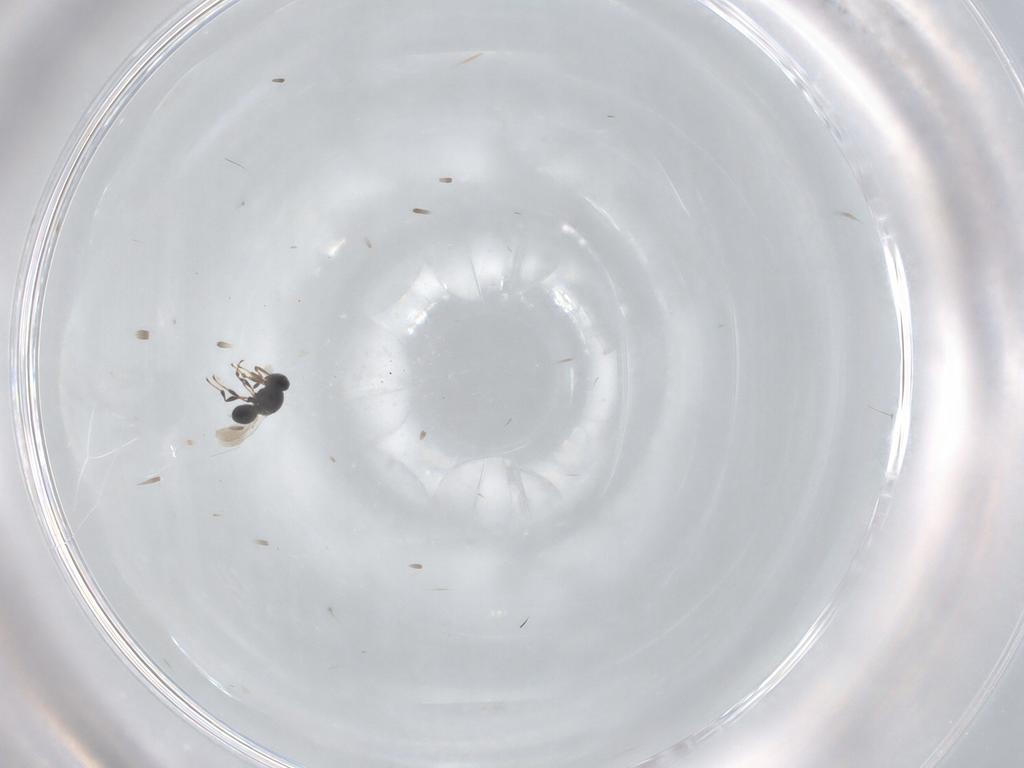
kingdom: Animalia
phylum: Arthropoda
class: Insecta
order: Hymenoptera
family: Platygastridae
